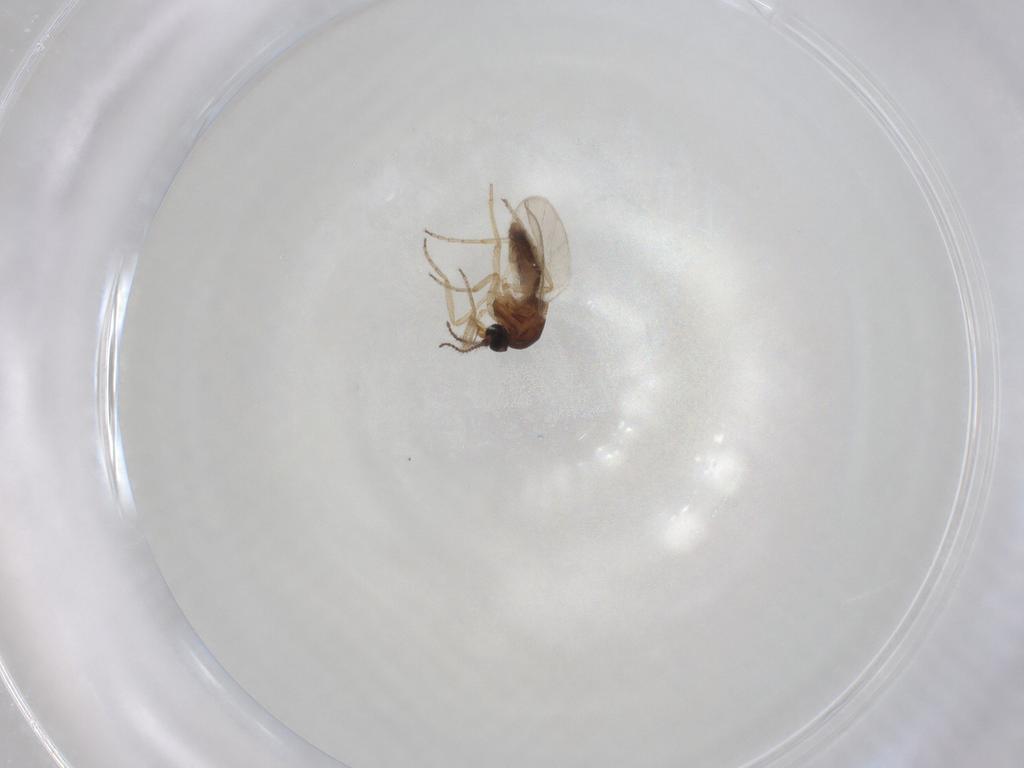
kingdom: Animalia
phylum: Arthropoda
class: Insecta
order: Diptera
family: Ceratopogonidae
